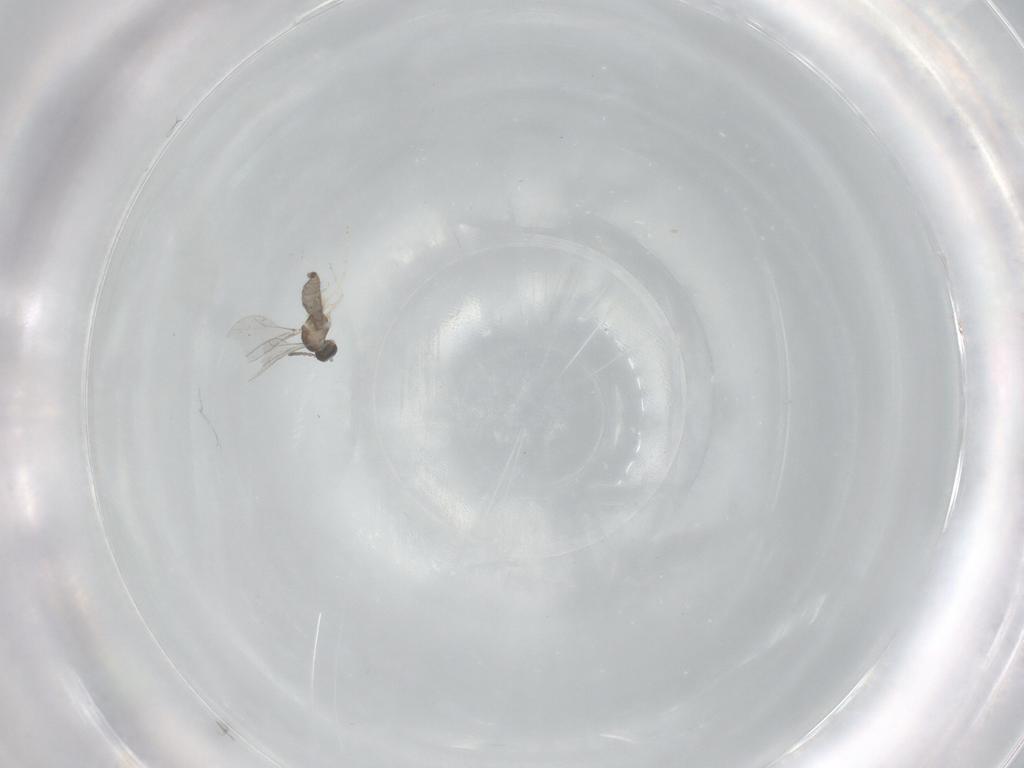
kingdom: Animalia
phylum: Arthropoda
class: Insecta
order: Diptera
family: Cecidomyiidae
